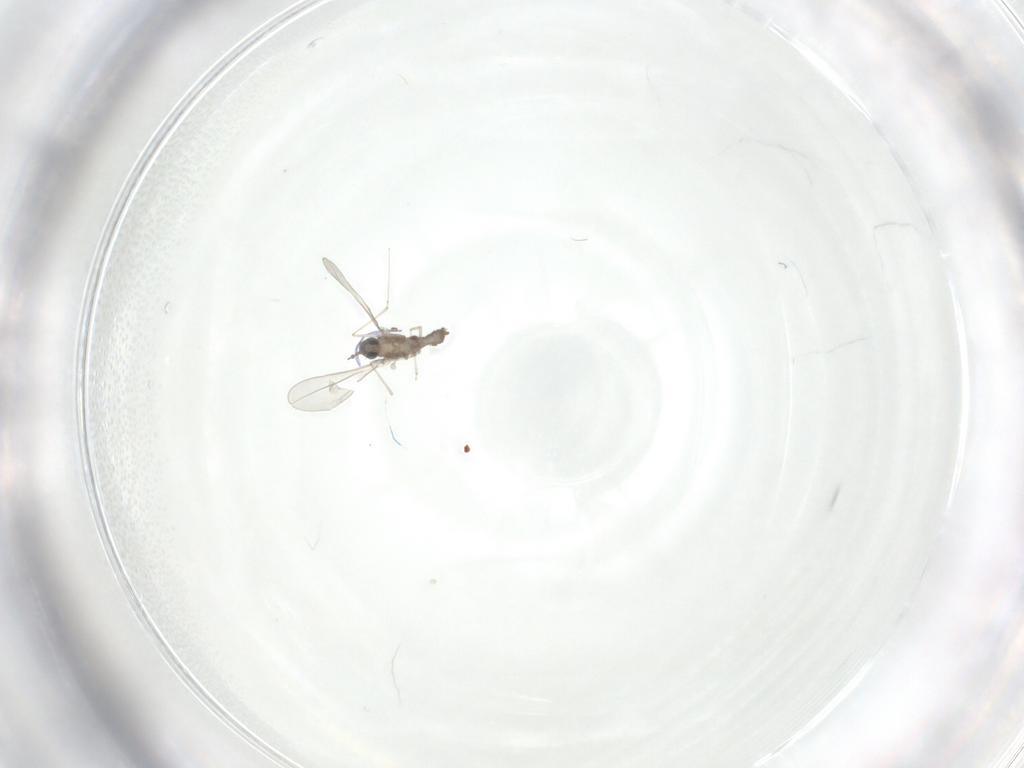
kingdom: Animalia
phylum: Arthropoda
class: Insecta
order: Diptera
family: Cecidomyiidae
